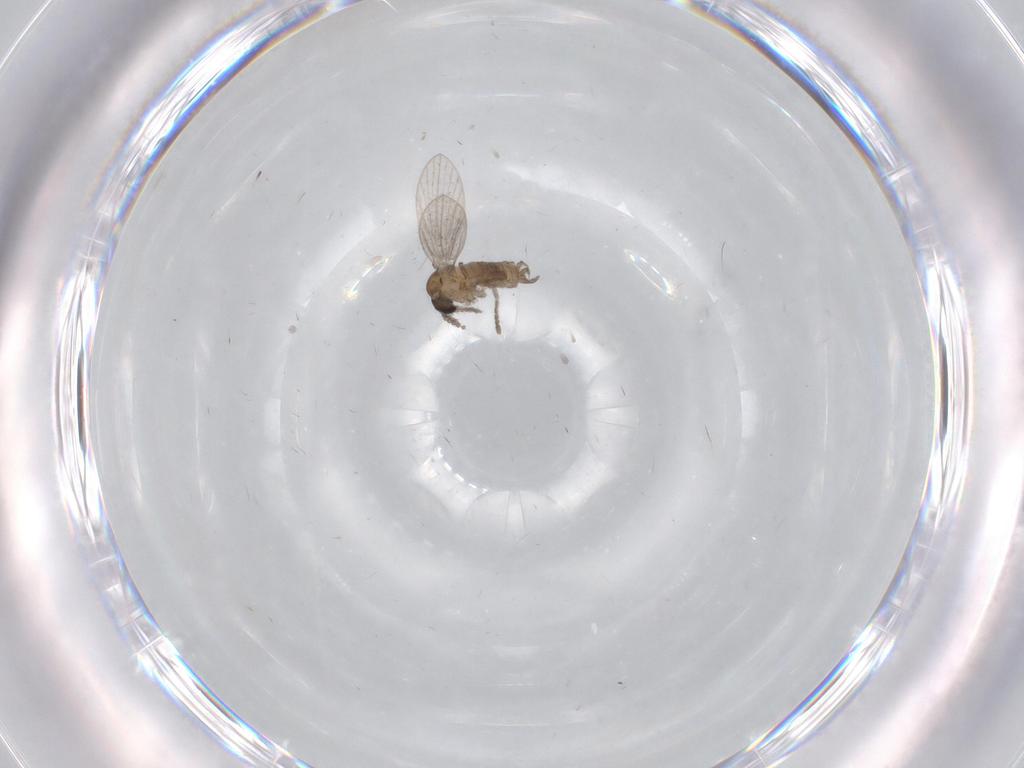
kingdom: Animalia
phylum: Arthropoda
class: Insecta
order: Diptera
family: Psychodidae
